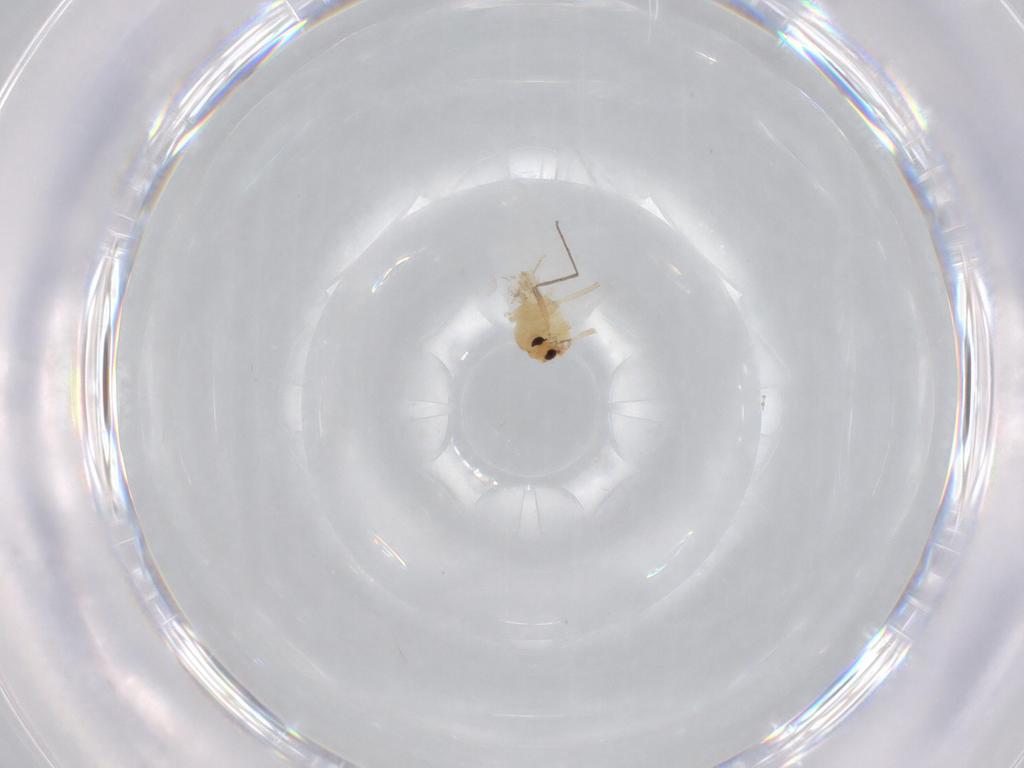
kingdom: Animalia
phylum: Arthropoda
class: Insecta
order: Diptera
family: Chironomidae
